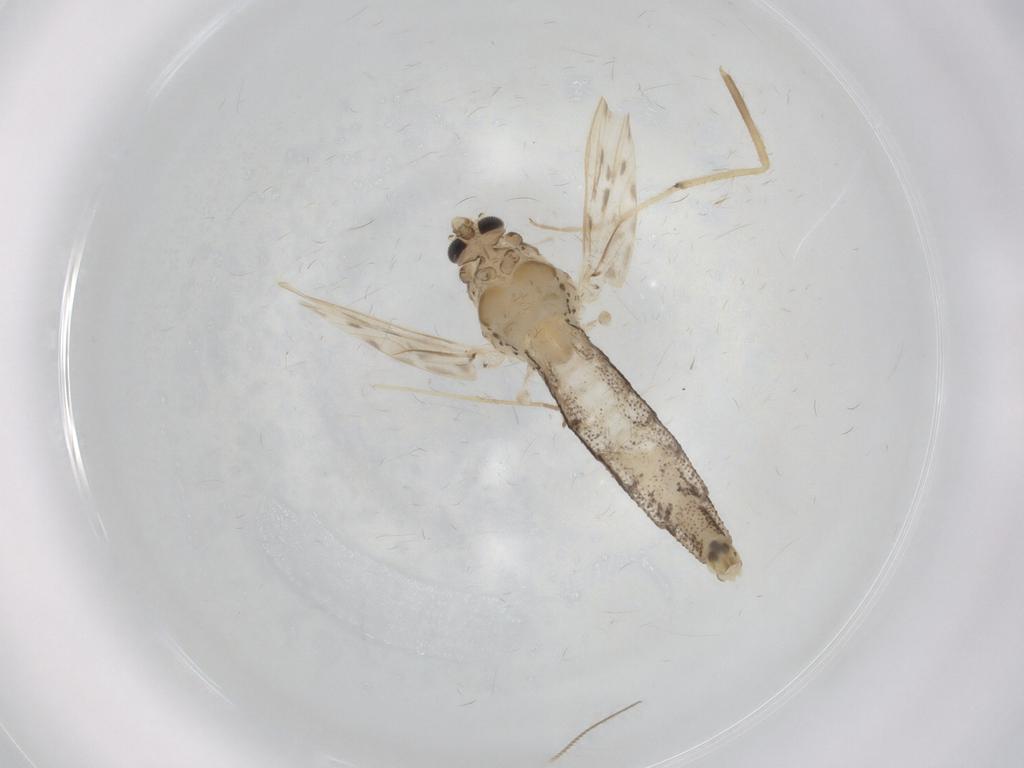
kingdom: Animalia
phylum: Arthropoda
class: Insecta
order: Diptera
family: Chaoboridae
